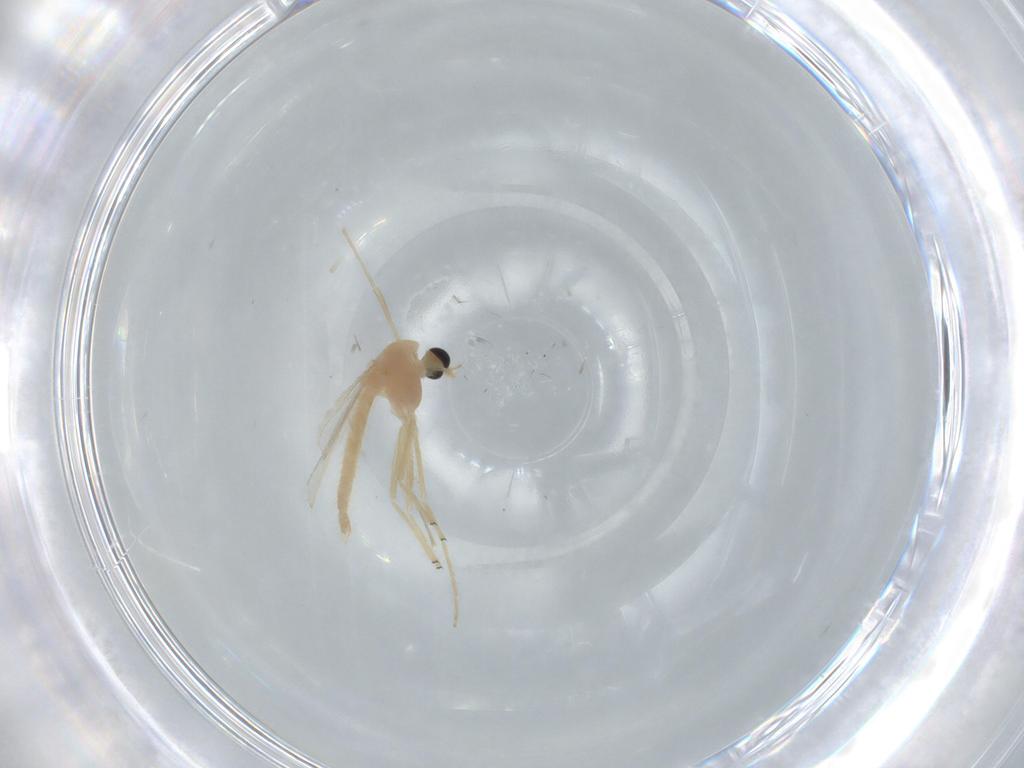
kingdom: Animalia
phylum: Arthropoda
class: Insecta
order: Diptera
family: Chironomidae
